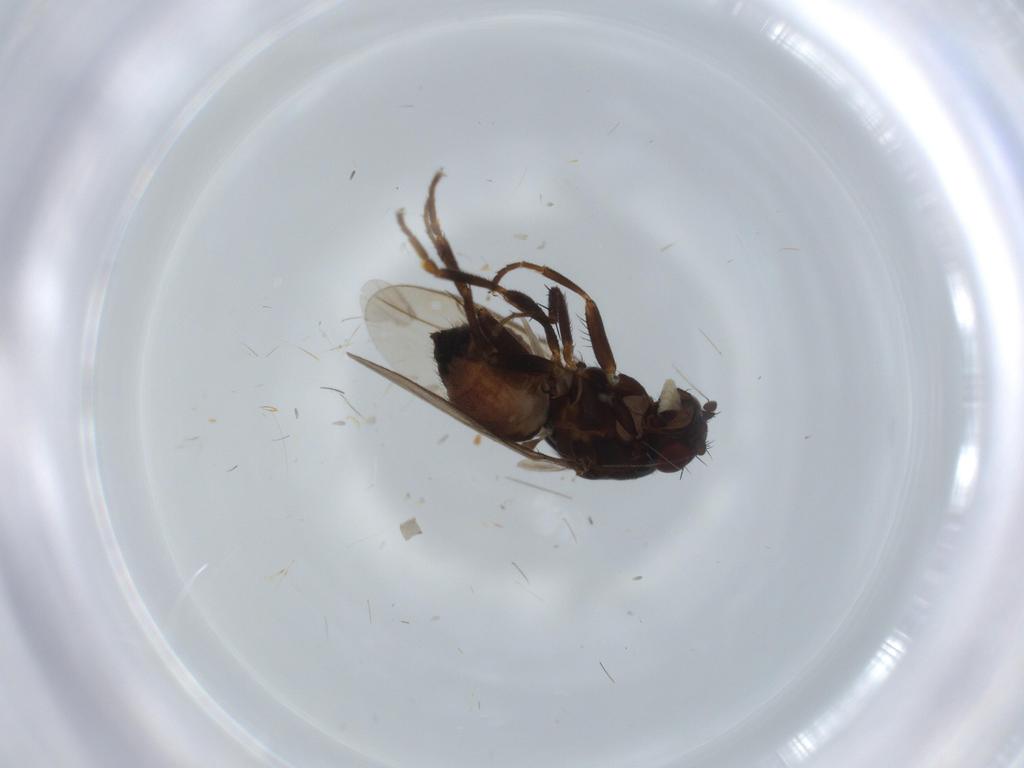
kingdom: Animalia
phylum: Arthropoda
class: Insecta
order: Diptera
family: Sphaeroceridae
